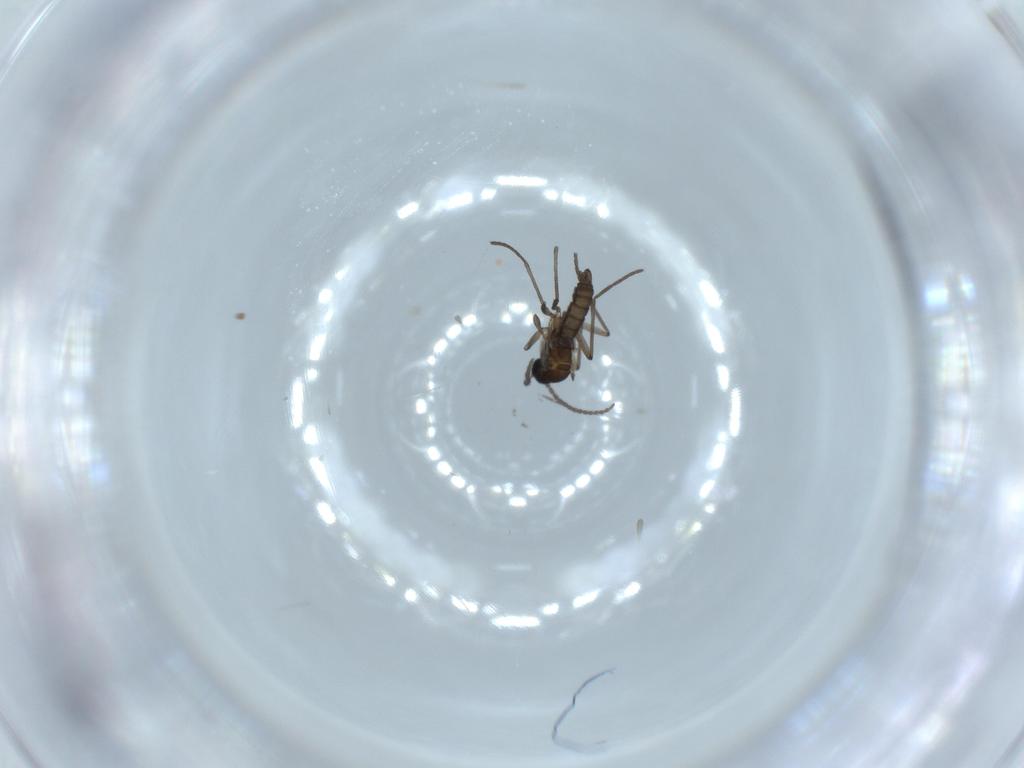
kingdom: Animalia
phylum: Arthropoda
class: Insecta
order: Diptera
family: Sciaridae
